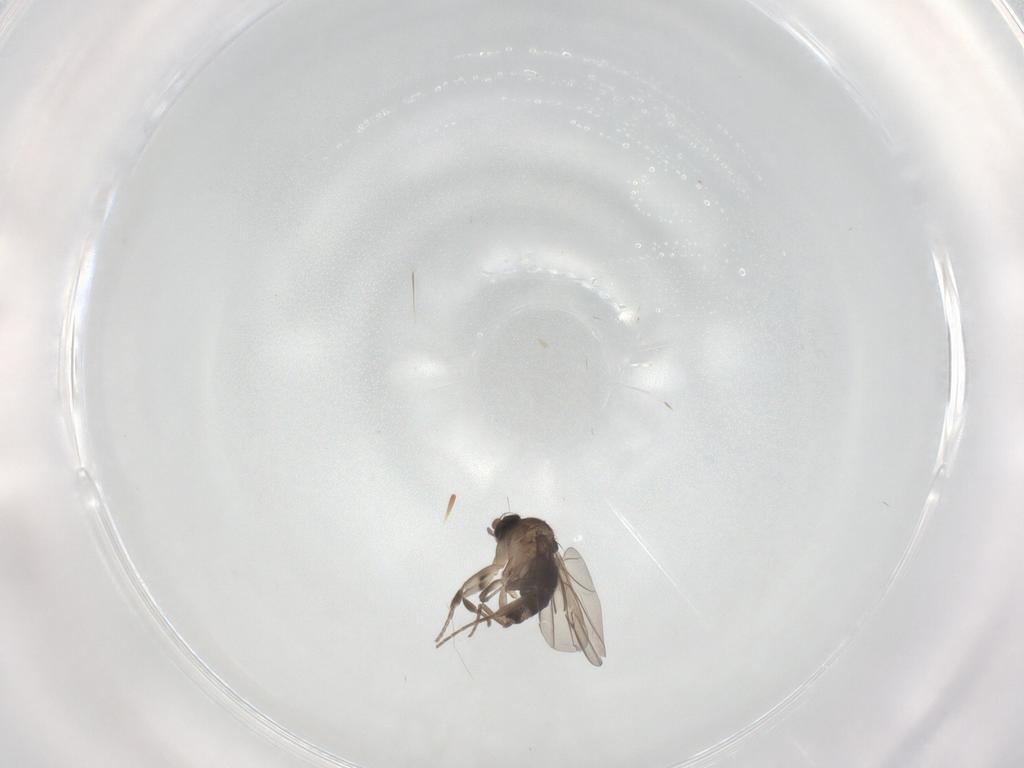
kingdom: Animalia
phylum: Arthropoda
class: Insecta
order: Diptera
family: Phoridae
